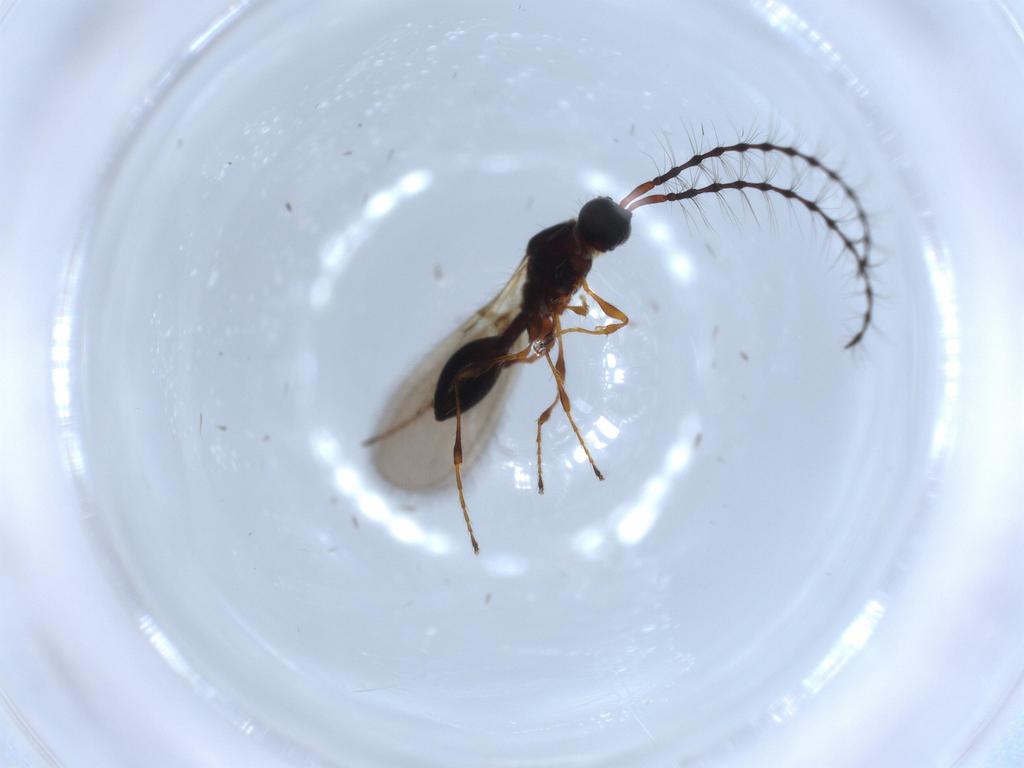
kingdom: Animalia
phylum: Arthropoda
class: Insecta
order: Hymenoptera
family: Diapriidae
